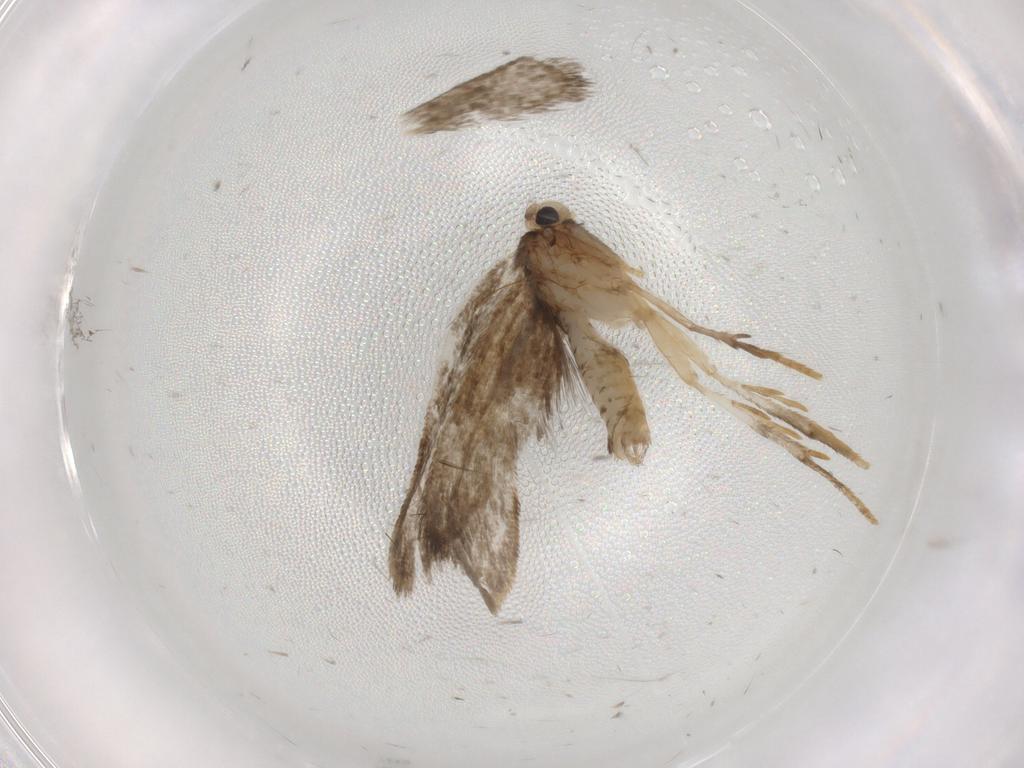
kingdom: Animalia
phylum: Arthropoda
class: Insecta
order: Lepidoptera
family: Psychidae
